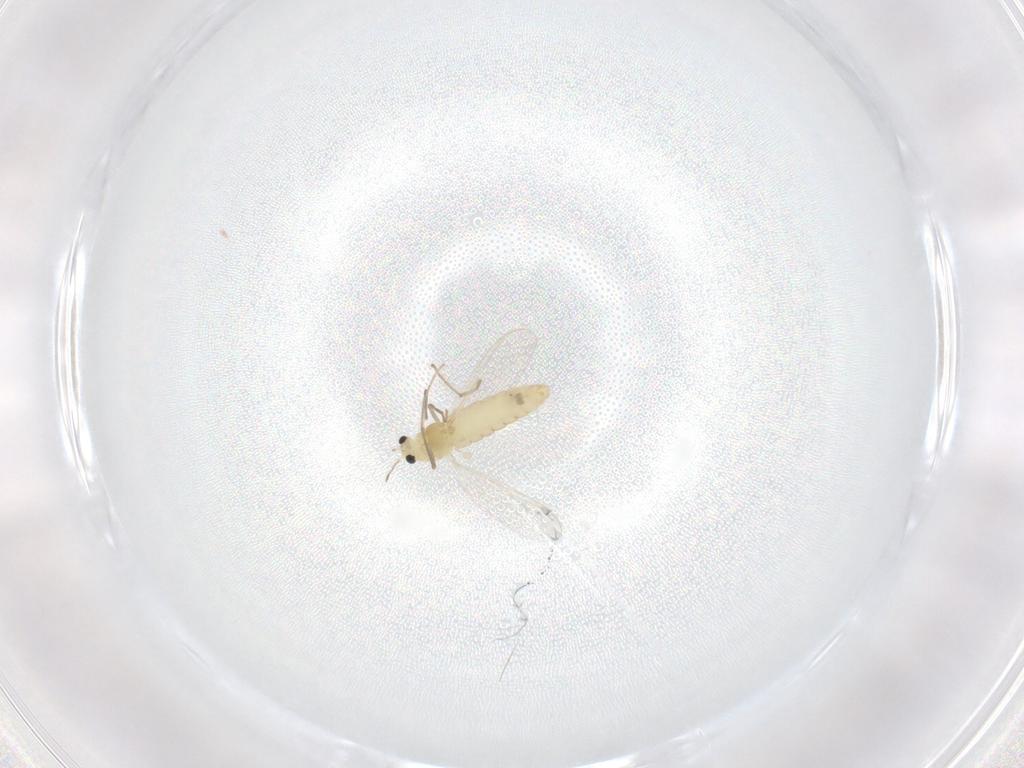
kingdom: Animalia
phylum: Arthropoda
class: Insecta
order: Diptera
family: Chironomidae
